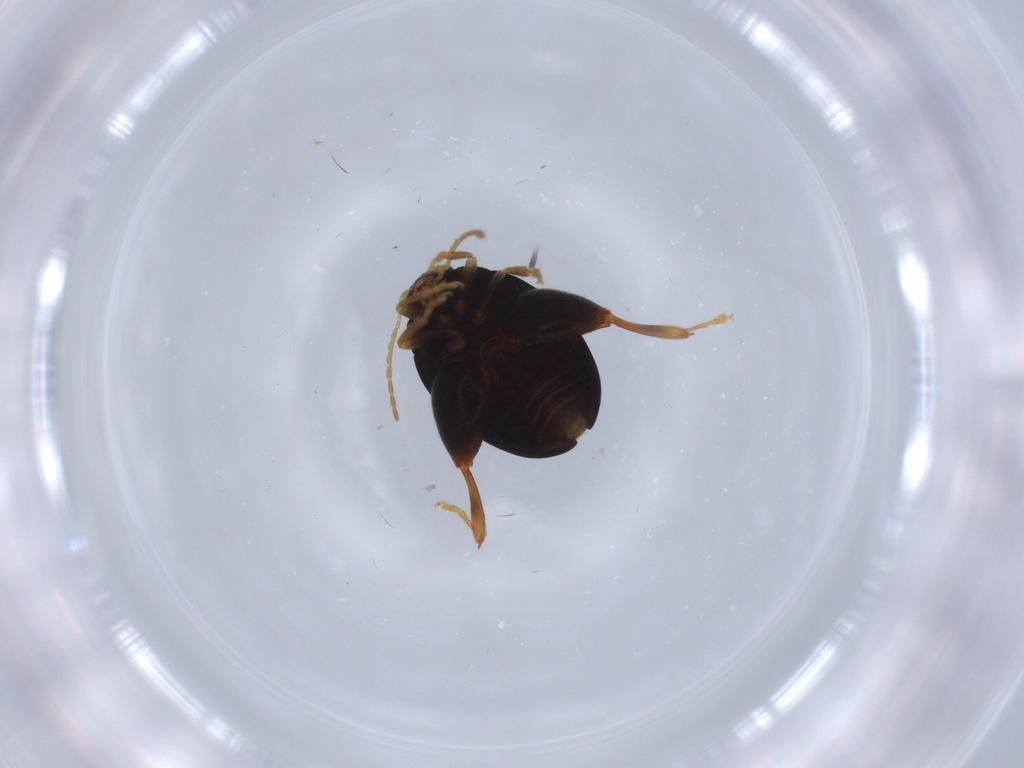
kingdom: Animalia
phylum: Arthropoda
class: Insecta
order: Coleoptera
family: Chrysomelidae
